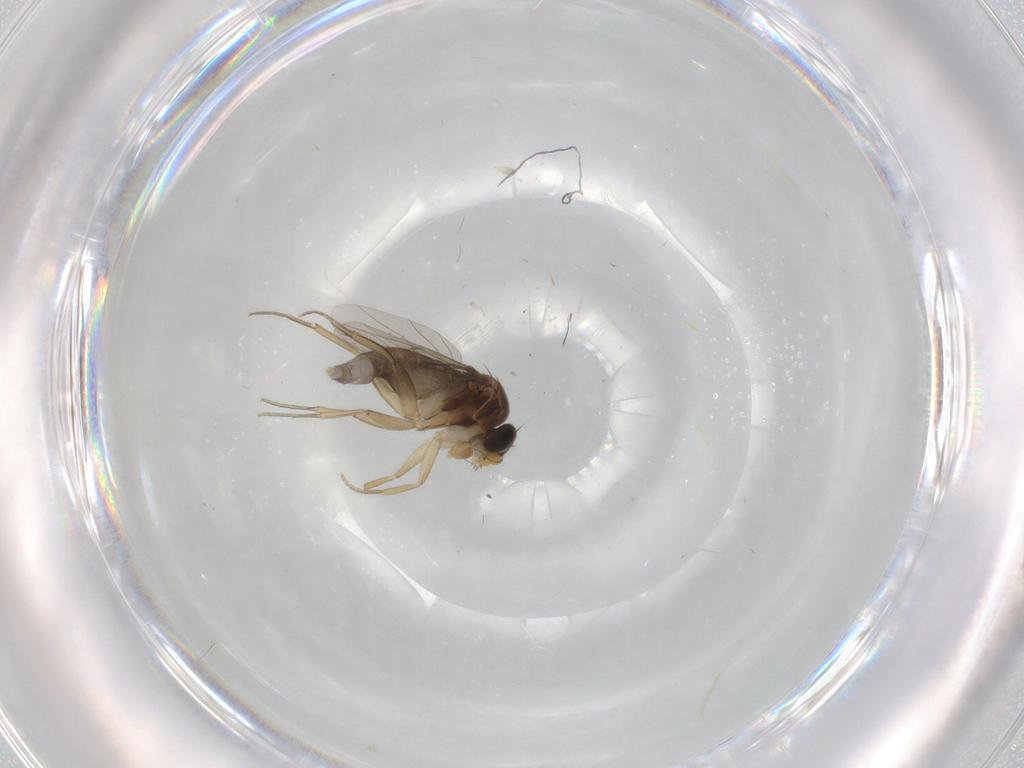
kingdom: Animalia
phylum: Arthropoda
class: Insecta
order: Diptera
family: Phoridae
